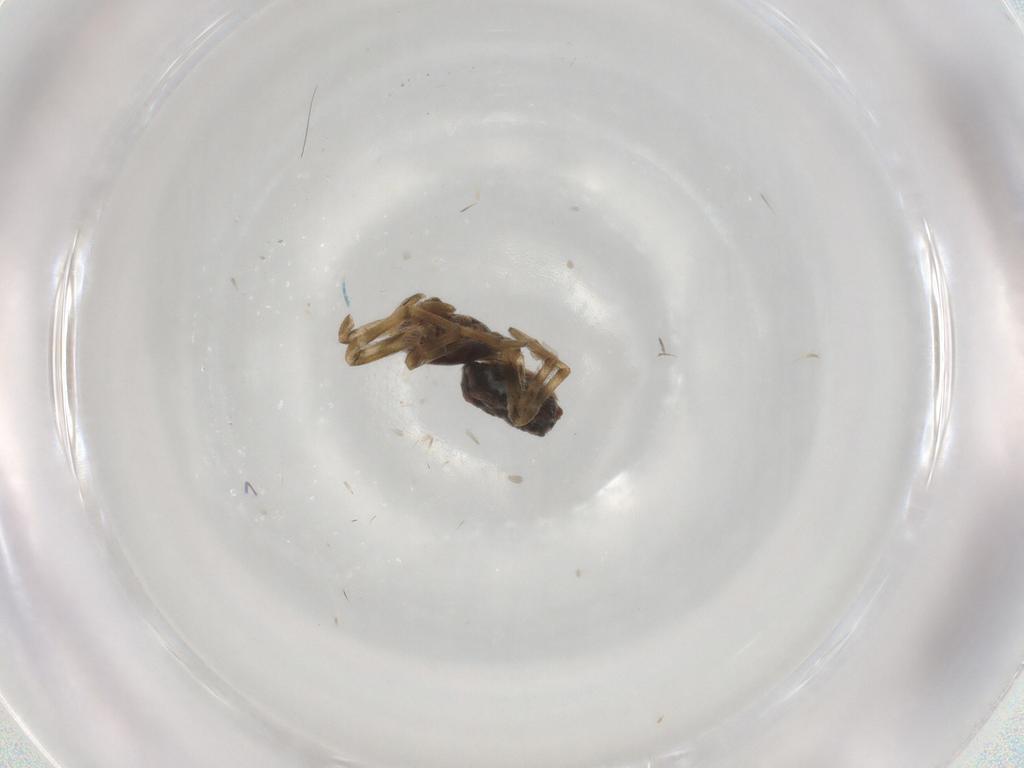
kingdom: Animalia
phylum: Arthropoda
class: Arachnida
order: Araneae
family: Dictynidae
